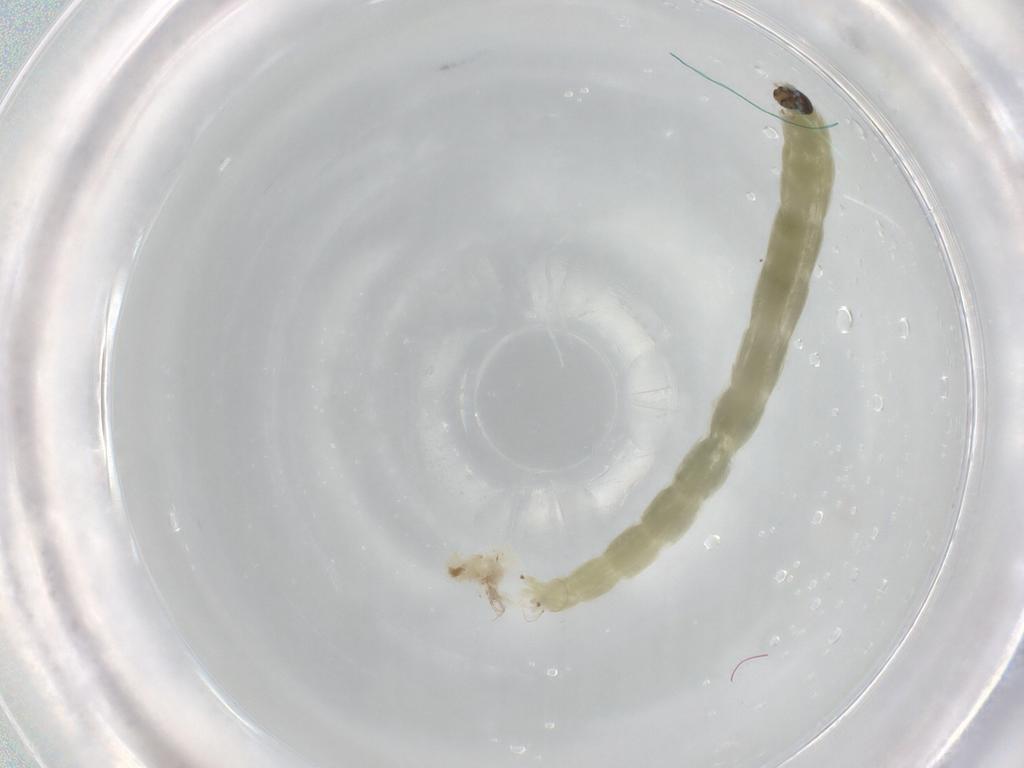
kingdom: Animalia
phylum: Arthropoda
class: Insecta
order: Diptera
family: Chironomidae
